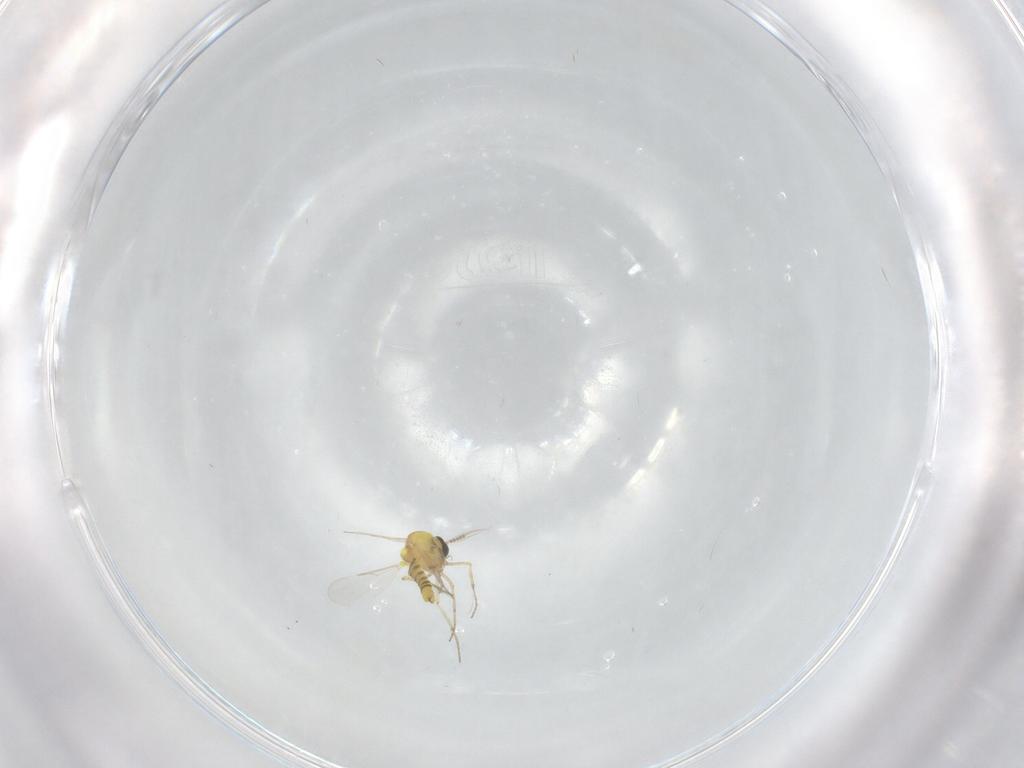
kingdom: Animalia
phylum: Arthropoda
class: Insecta
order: Diptera
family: Ceratopogonidae
